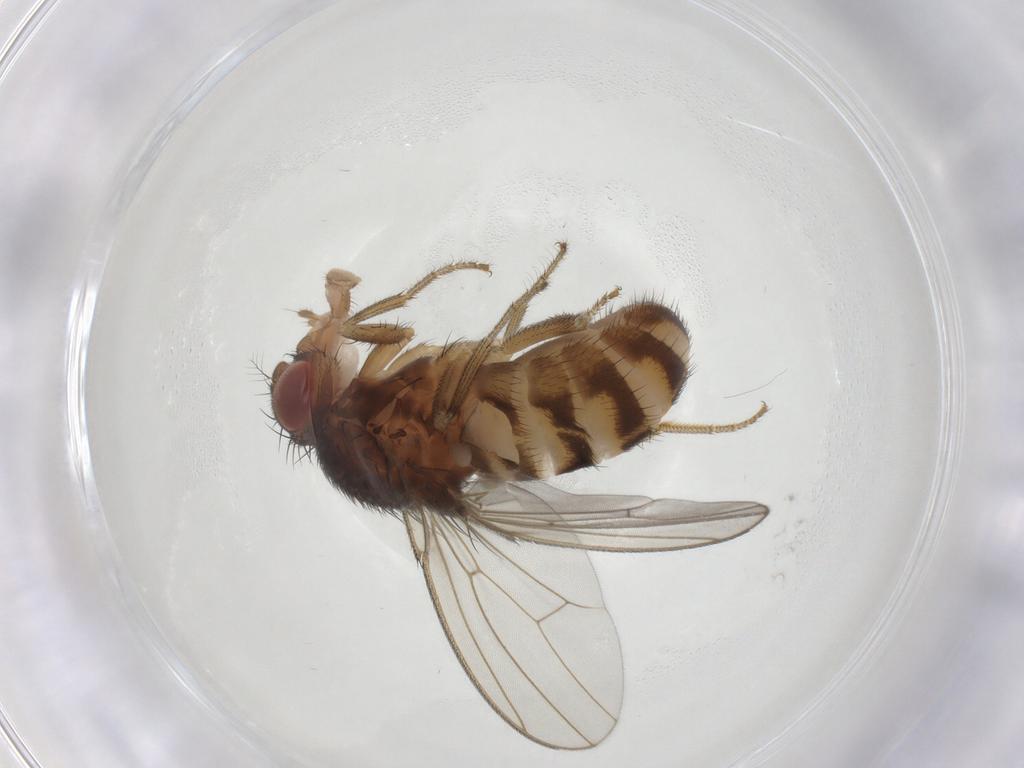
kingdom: Animalia
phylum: Arthropoda
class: Insecta
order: Diptera
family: Drosophilidae
